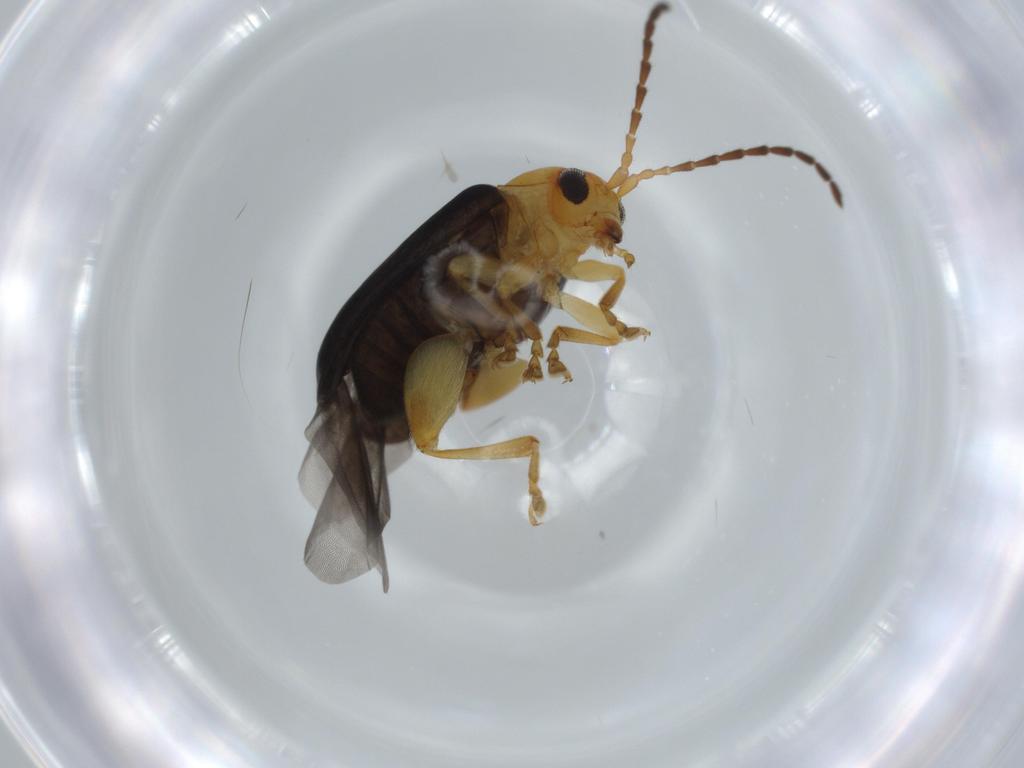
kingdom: Animalia
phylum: Arthropoda
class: Insecta
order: Coleoptera
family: Chrysomelidae
